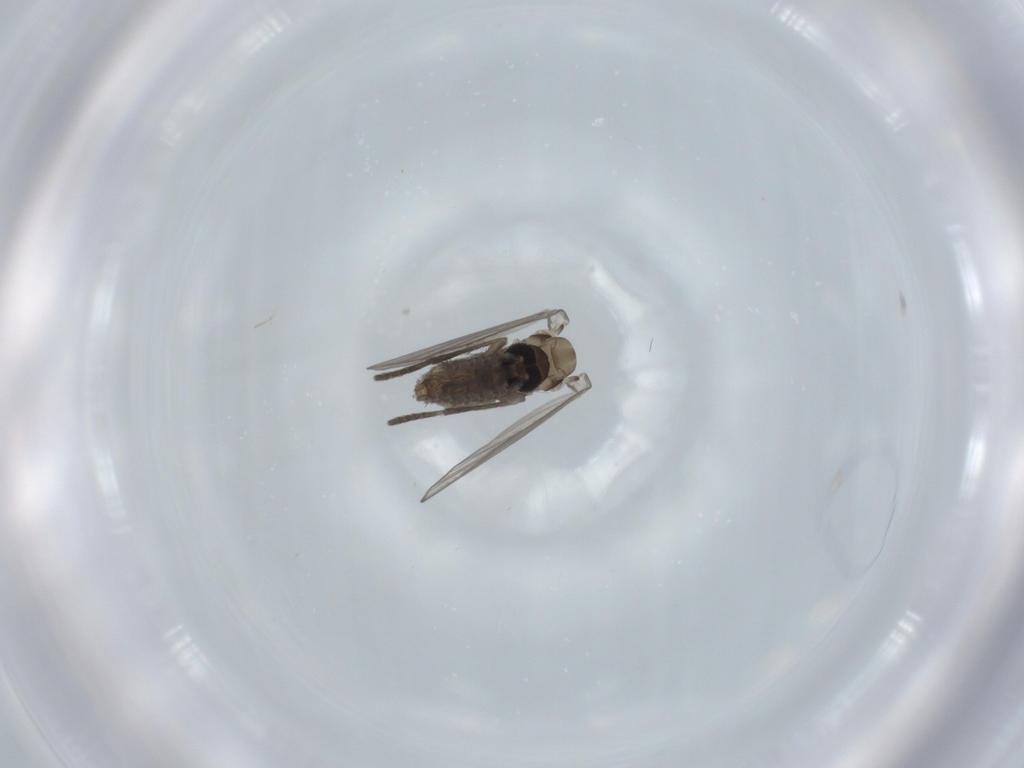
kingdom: Animalia
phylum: Arthropoda
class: Insecta
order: Diptera
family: Psychodidae
